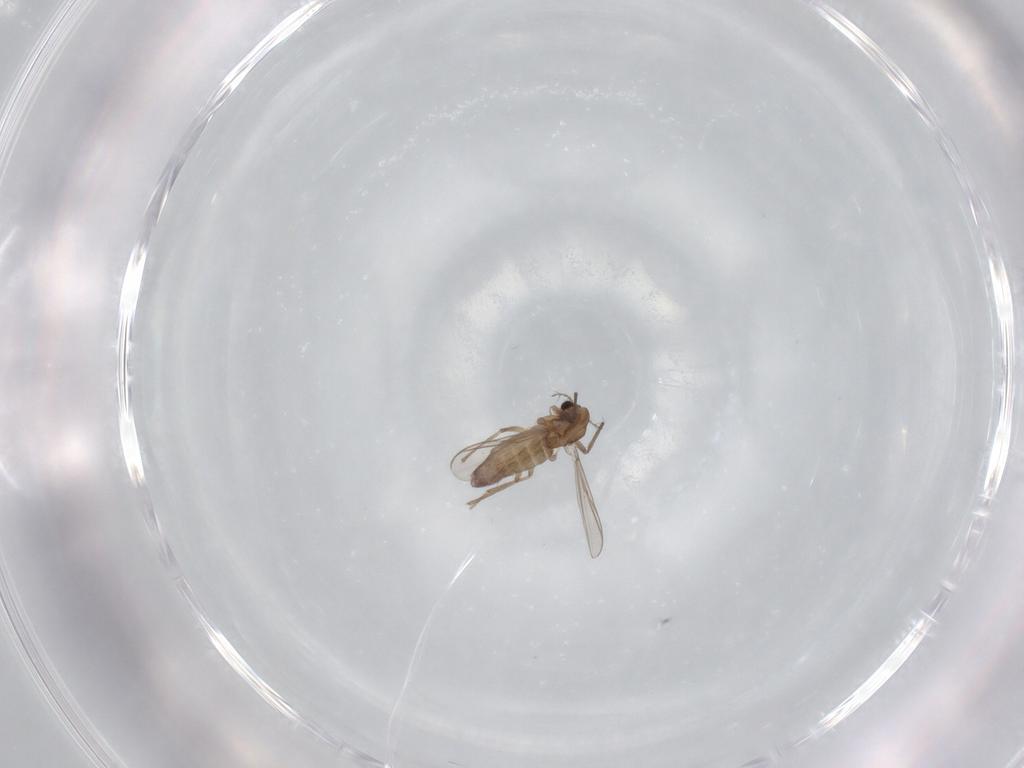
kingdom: Animalia
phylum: Arthropoda
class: Insecta
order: Diptera
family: Chironomidae
